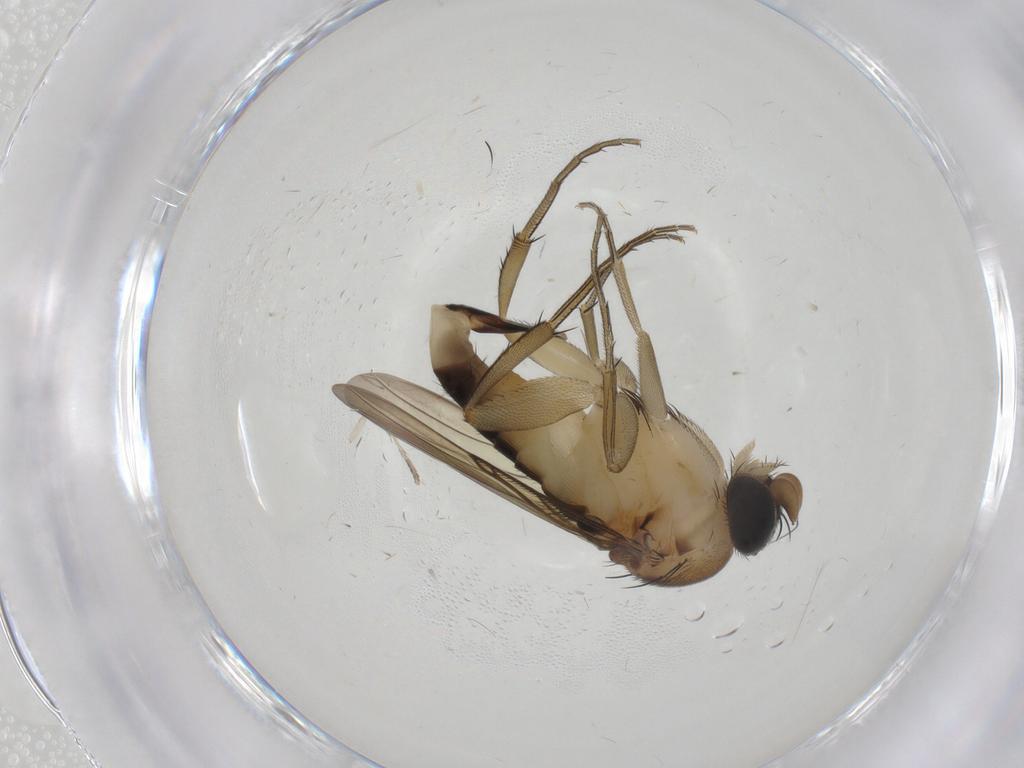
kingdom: Animalia
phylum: Arthropoda
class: Insecta
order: Diptera
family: Phoridae
